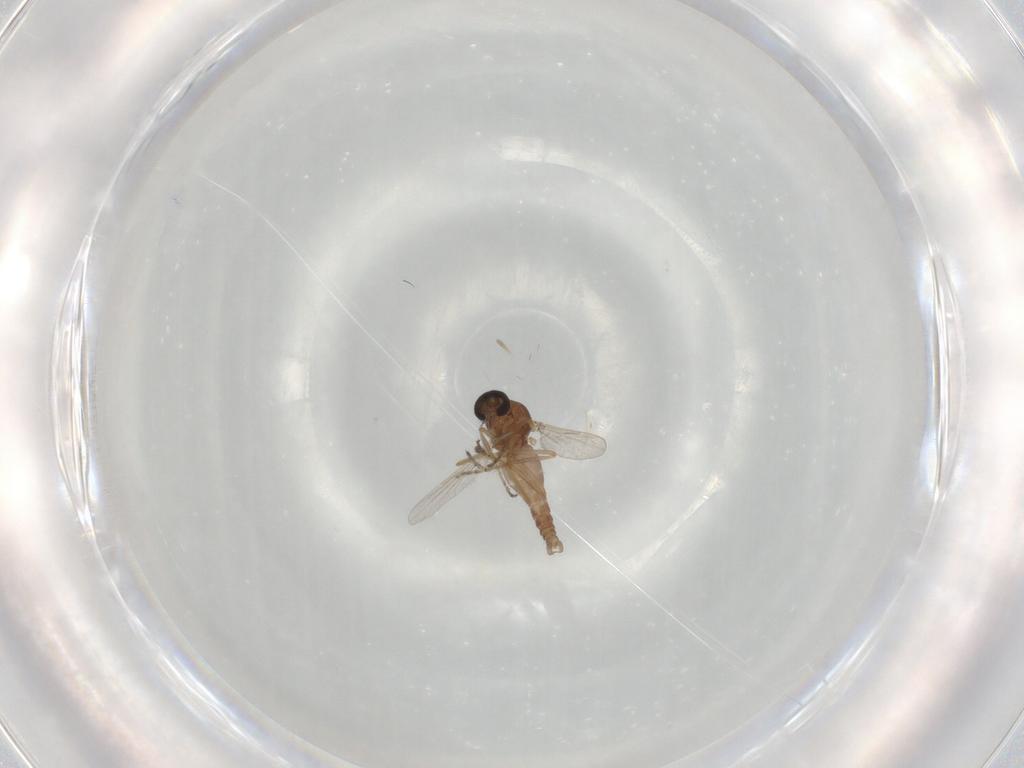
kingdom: Animalia
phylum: Arthropoda
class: Insecta
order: Diptera
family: Ceratopogonidae
